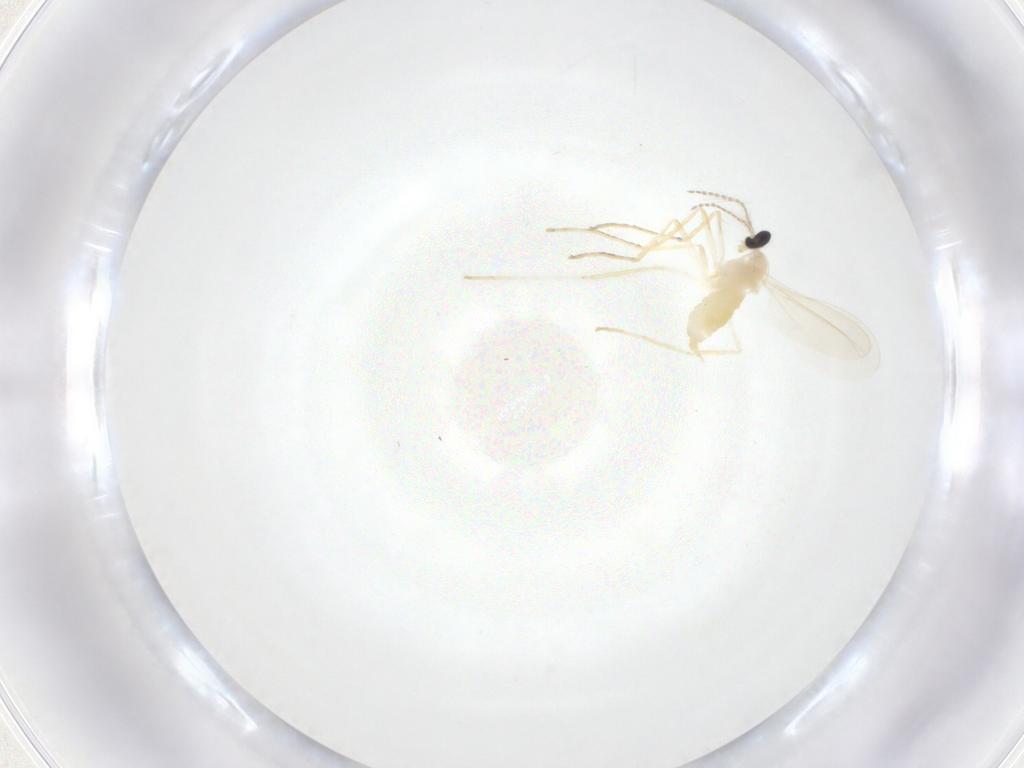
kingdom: Animalia
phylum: Arthropoda
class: Insecta
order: Diptera
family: Cecidomyiidae
